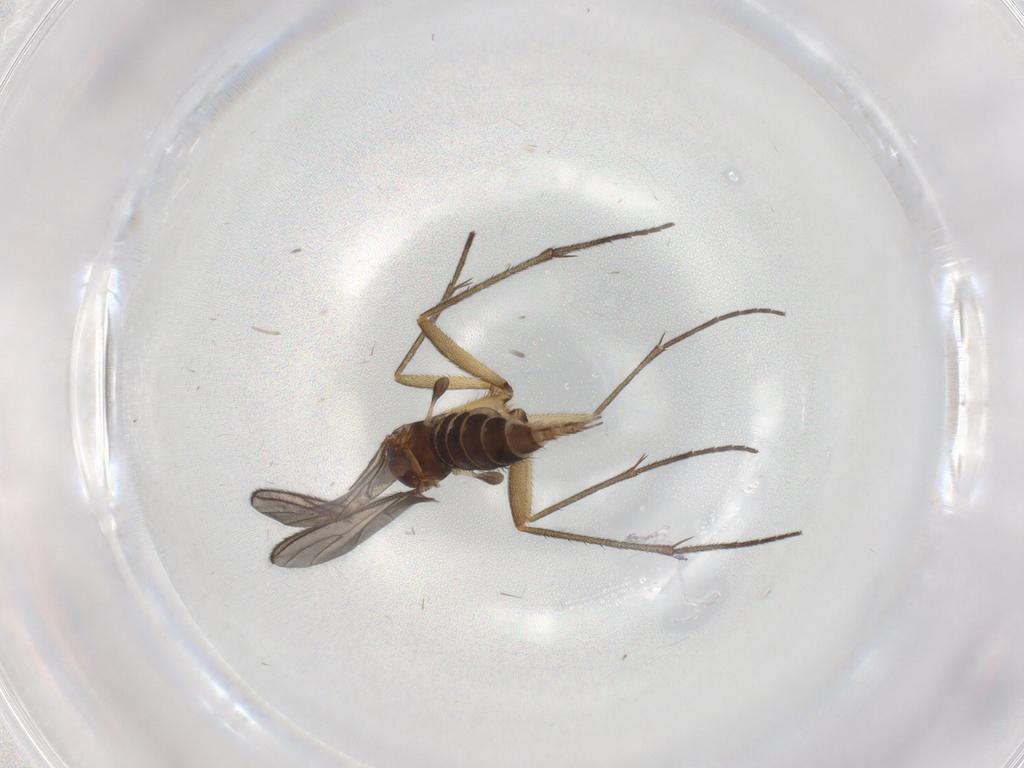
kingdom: Animalia
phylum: Arthropoda
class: Insecta
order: Diptera
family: Sciaridae
